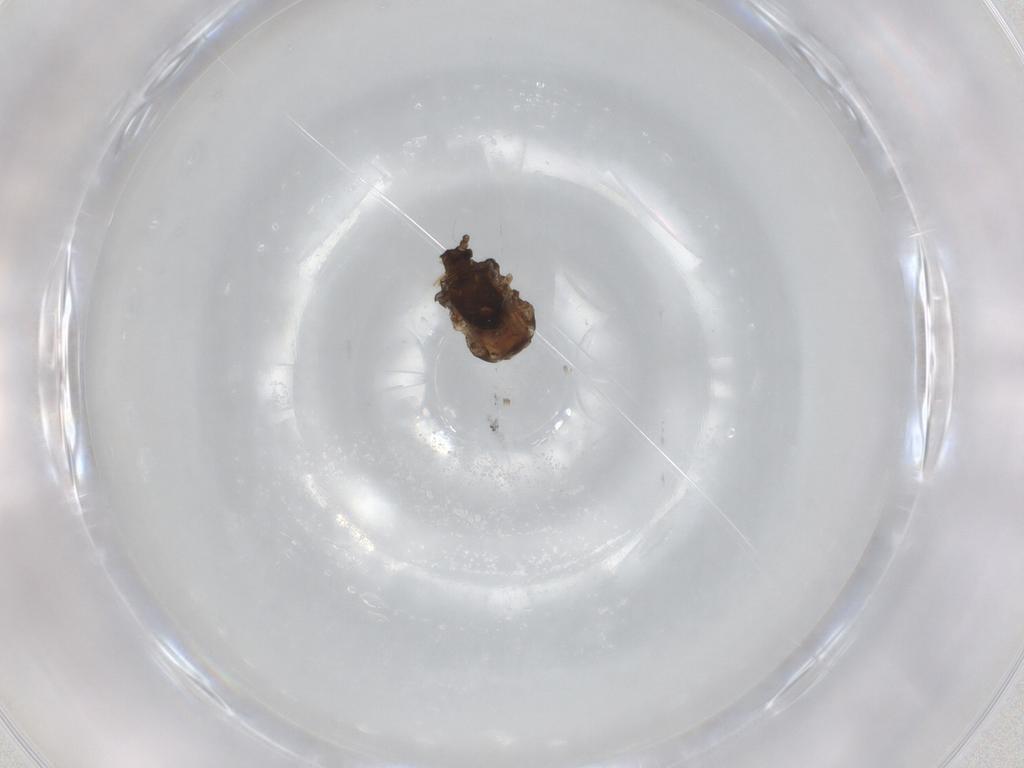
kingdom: Animalia
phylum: Arthropoda
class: Insecta
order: Hemiptera
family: Aphididae
